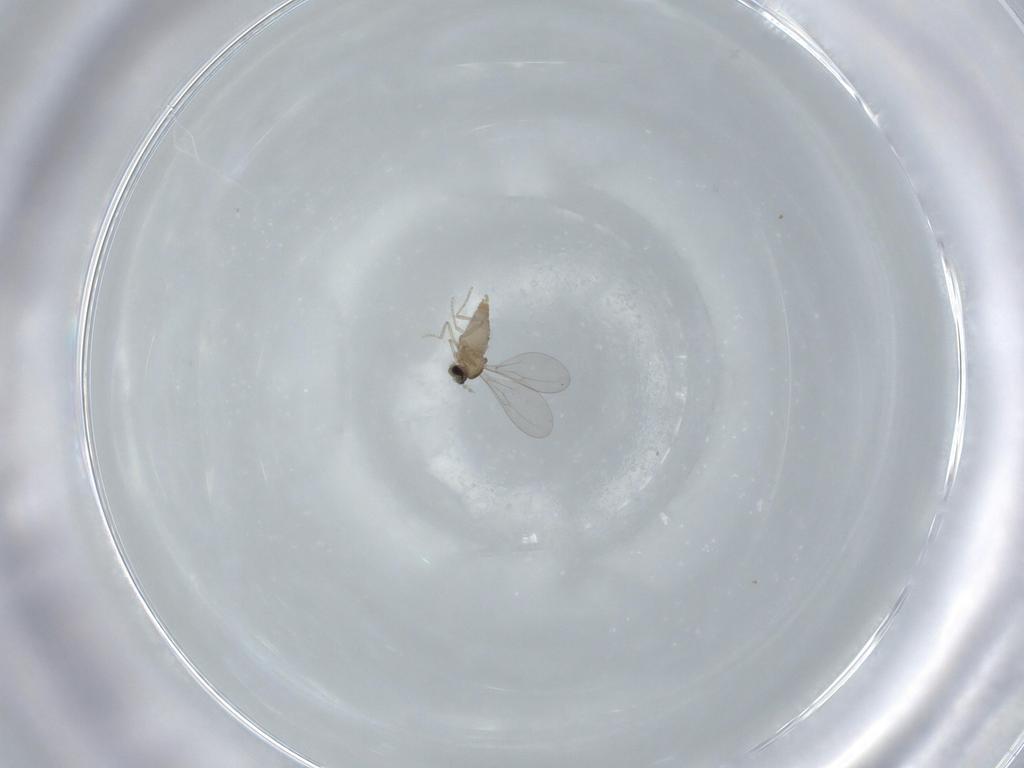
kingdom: Animalia
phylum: Arthropoda
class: Insecta
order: Diptera
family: Cecidomyiidae
